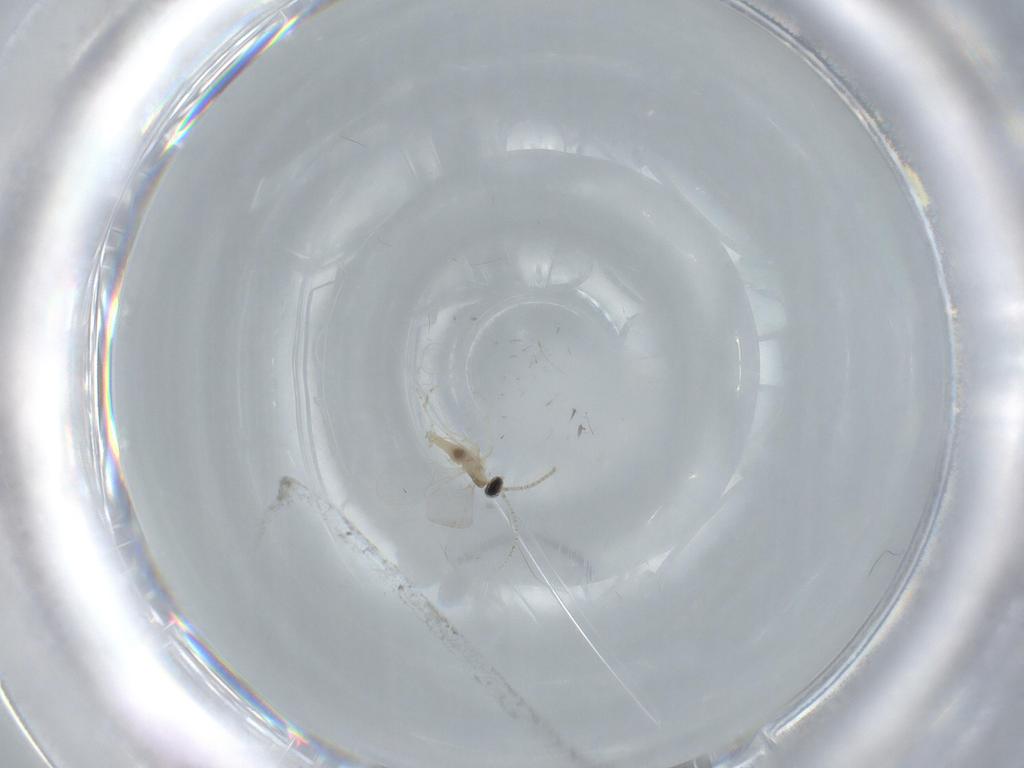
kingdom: Animalia
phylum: Arthropoda
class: Insecta
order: Diptera
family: Cecidomyiidae
